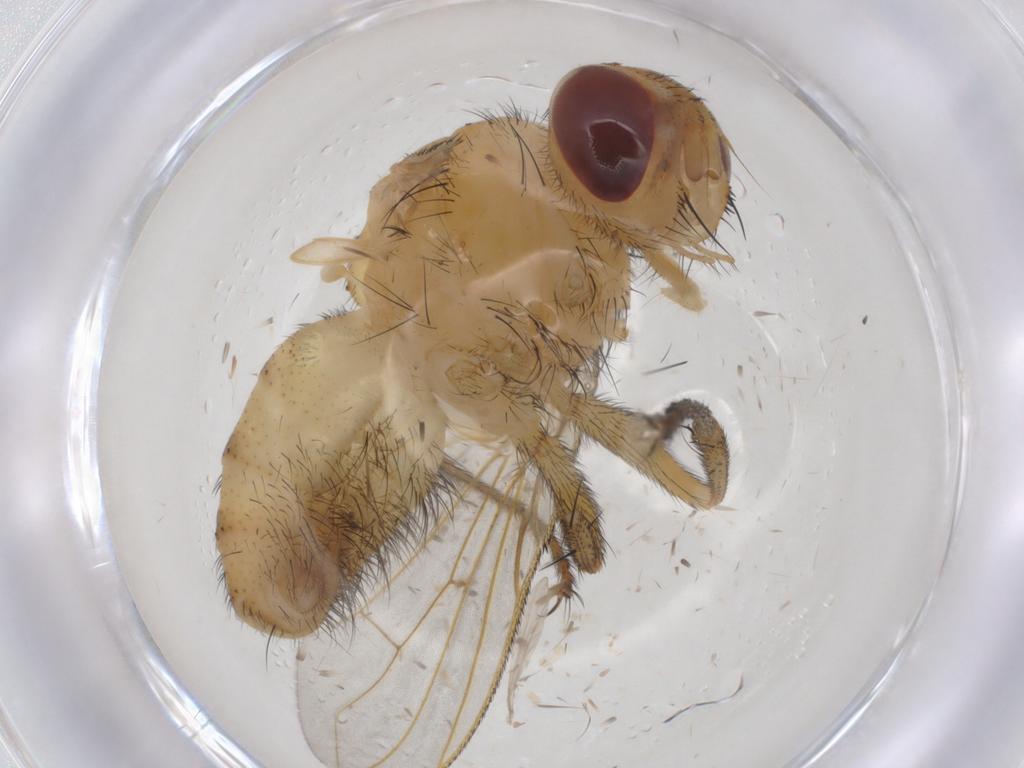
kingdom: Animalia
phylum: Arthropoda
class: Insecta
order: Diptera
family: Tachinidae
